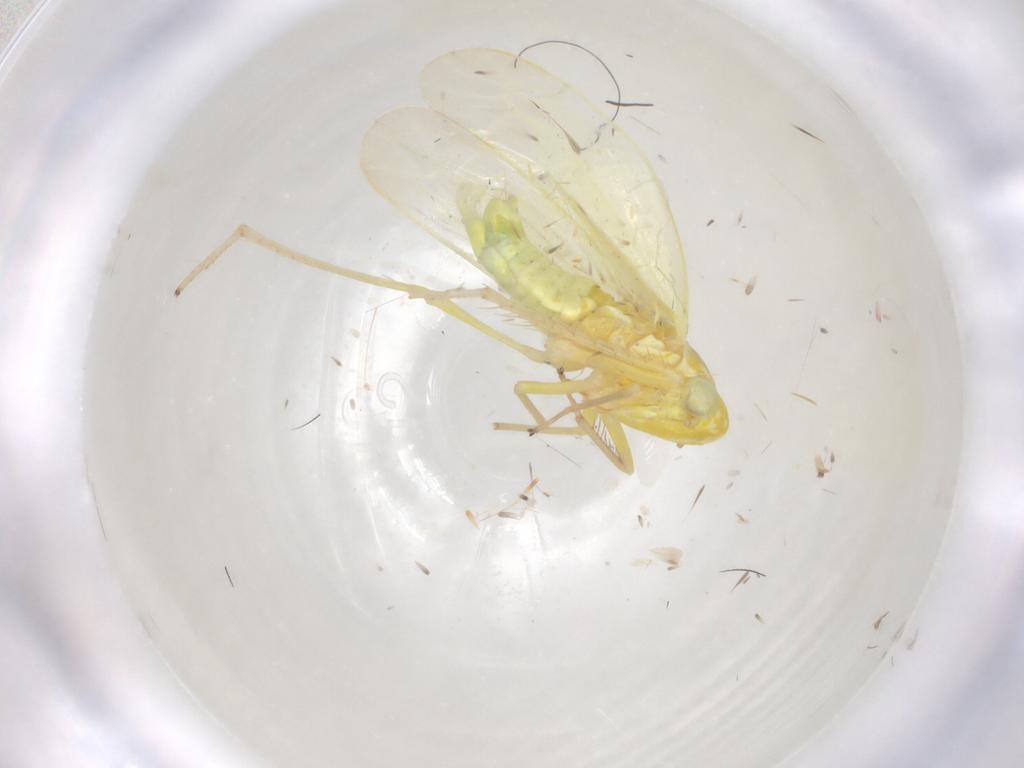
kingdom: Animalia
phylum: Arthropoda
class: Insecta
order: Hemiptera
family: Cicadellidae
